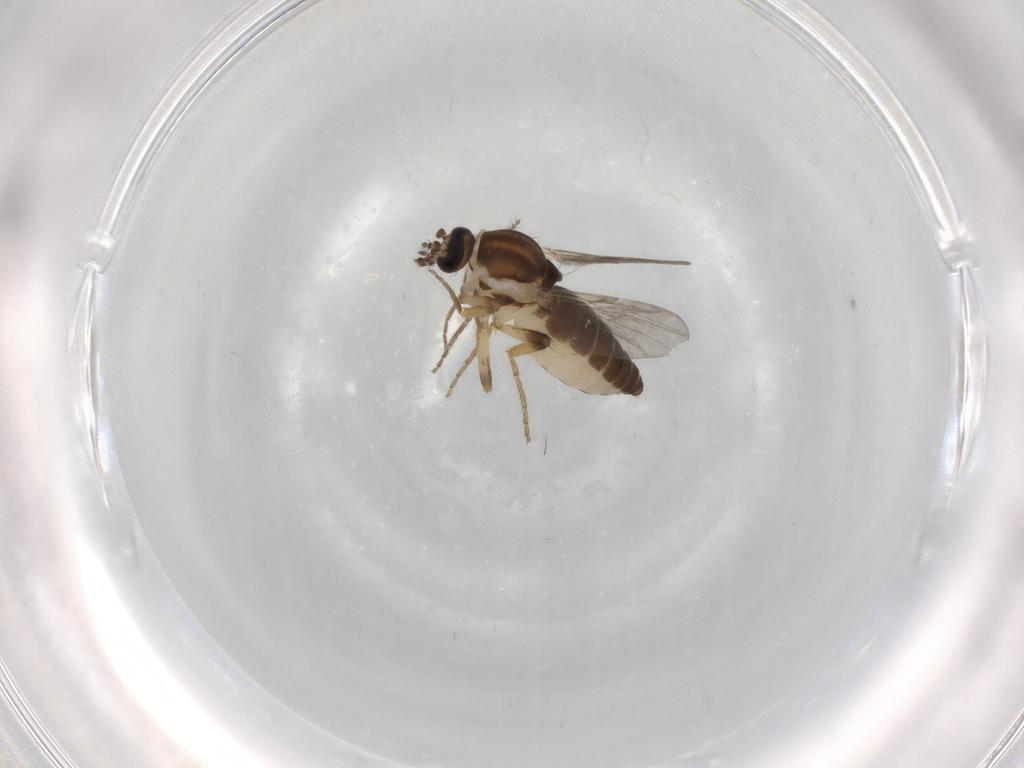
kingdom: Animalia
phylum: Arthropoda
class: Insecta
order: Diptera
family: Ceratopogonidae
